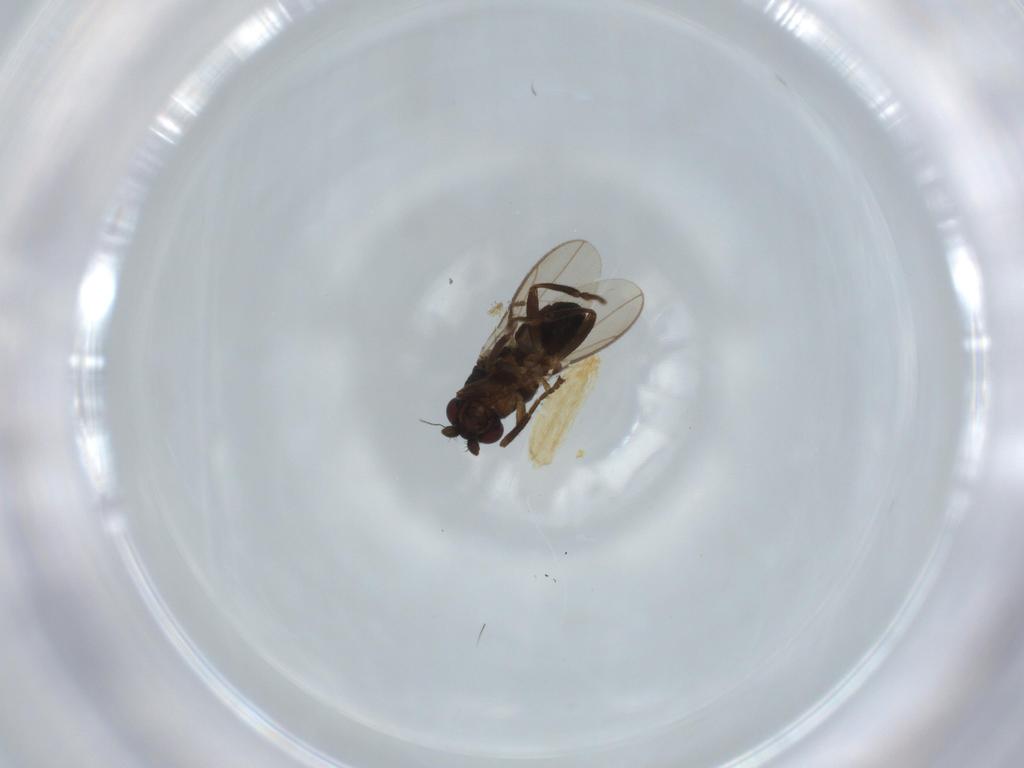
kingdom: Animalia
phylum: Arthropoda
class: Insecta
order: Diptera
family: Sphaeroceridae
